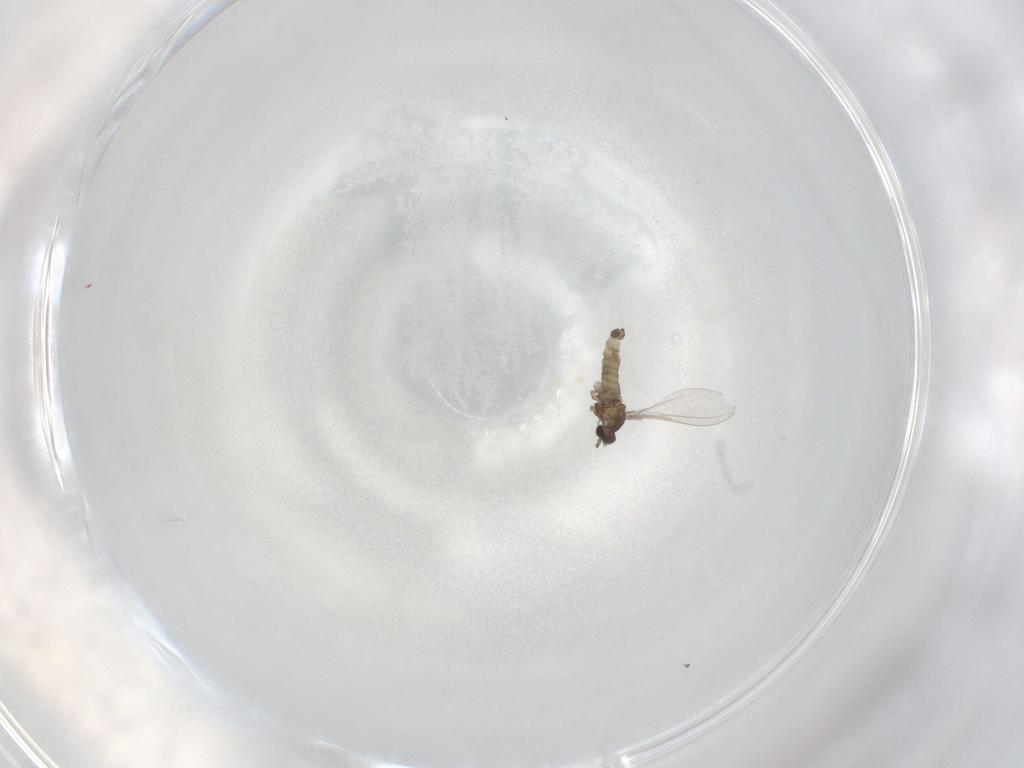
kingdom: Animalia
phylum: Arthropoda
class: Insecta
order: Diptera
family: Cecidomyiidae
